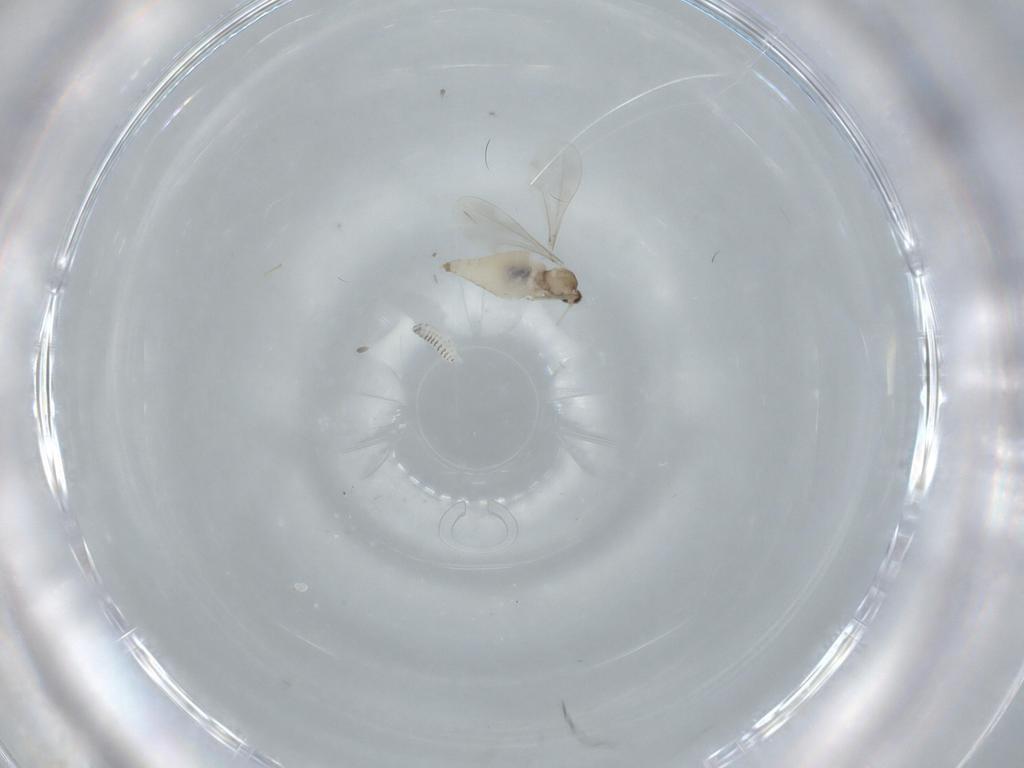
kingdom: Animalia
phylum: Arthropoda
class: Insecta
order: Diptera
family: Cecidomyiidae
